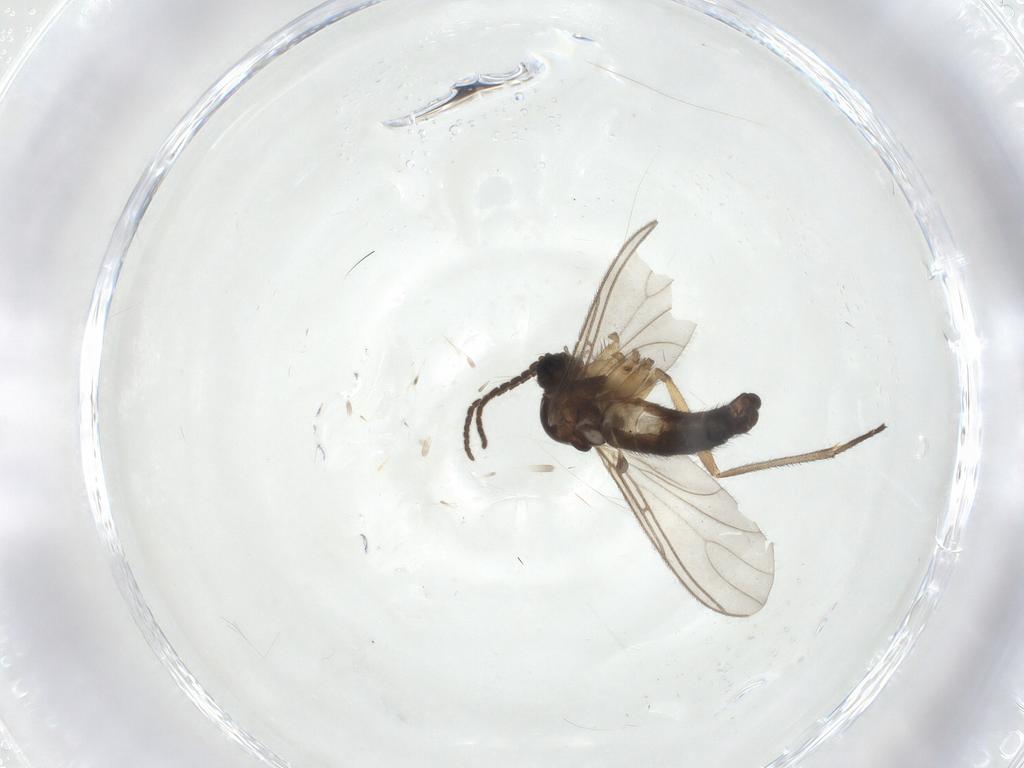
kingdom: Animalia
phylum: Arthropoda
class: Insecta
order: Diptera
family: Sciaridae
